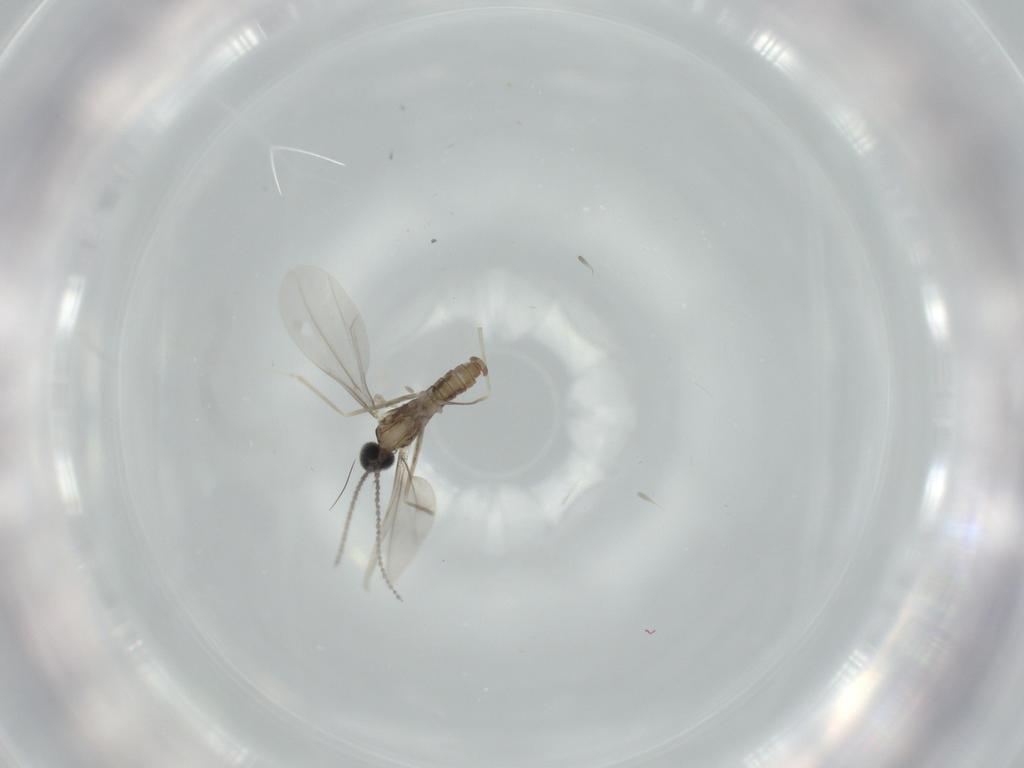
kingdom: Animalia
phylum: Arthropoda
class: Insecta
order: Diptera
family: Cecidomyiidae
